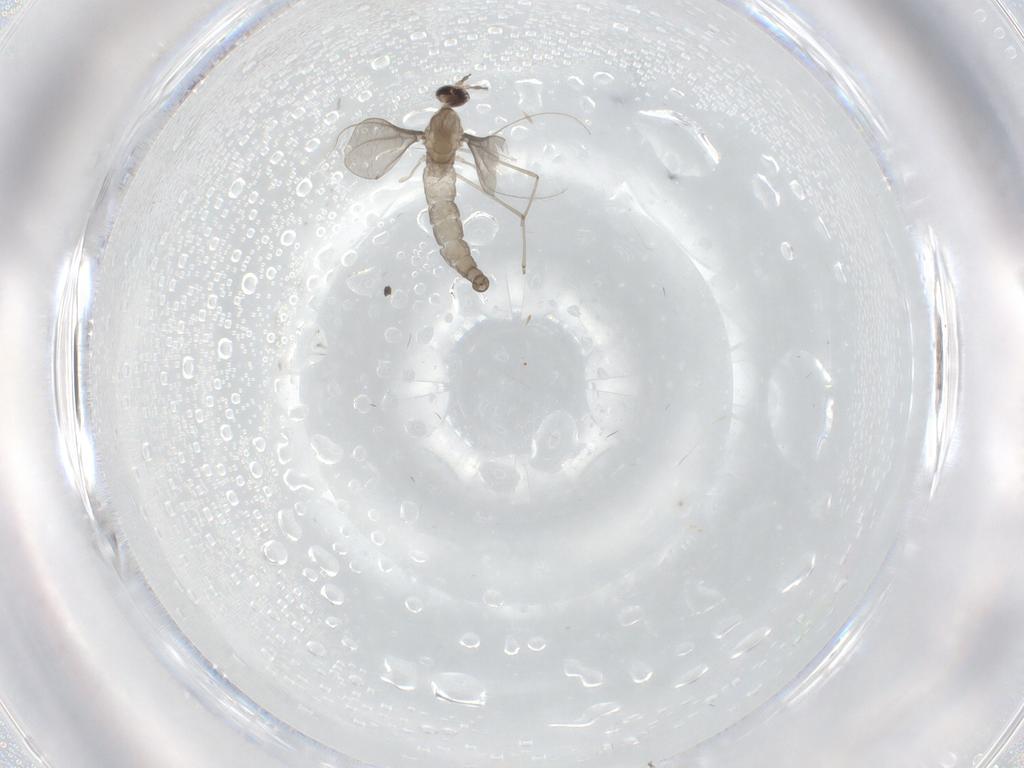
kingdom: Animalia
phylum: Arthropoda
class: Insecta
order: Diptera
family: Cecidomyiidae
